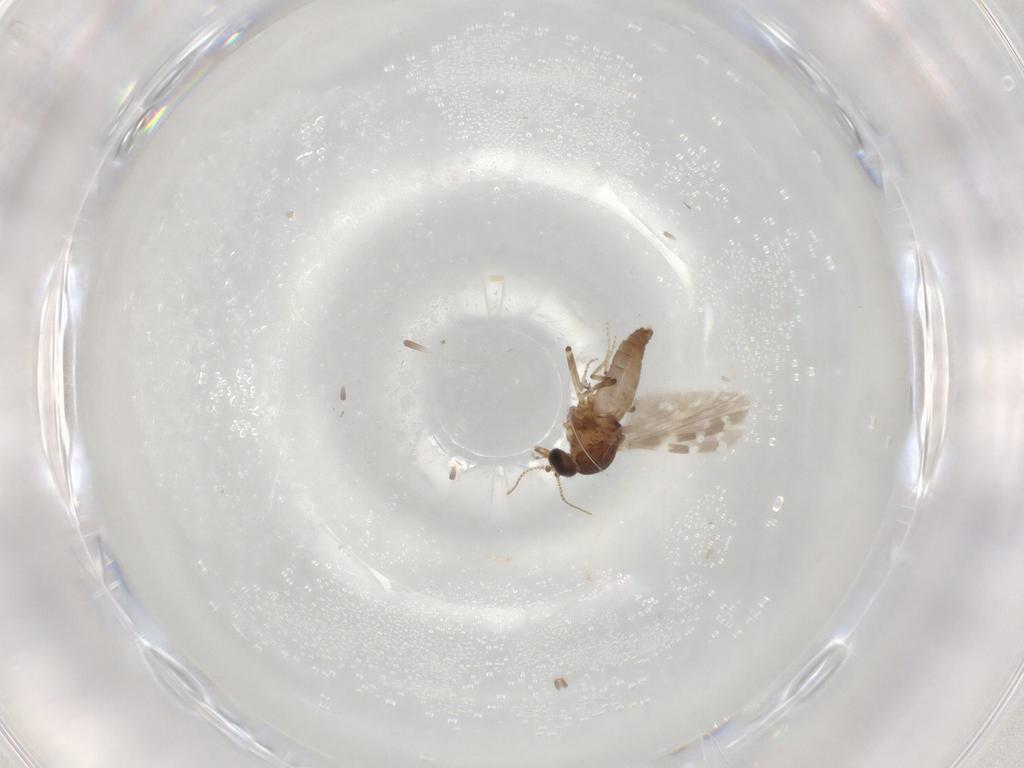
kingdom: Animalia
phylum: Arthropoda
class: Insecta
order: Diptera
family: Ceratopogonidae
